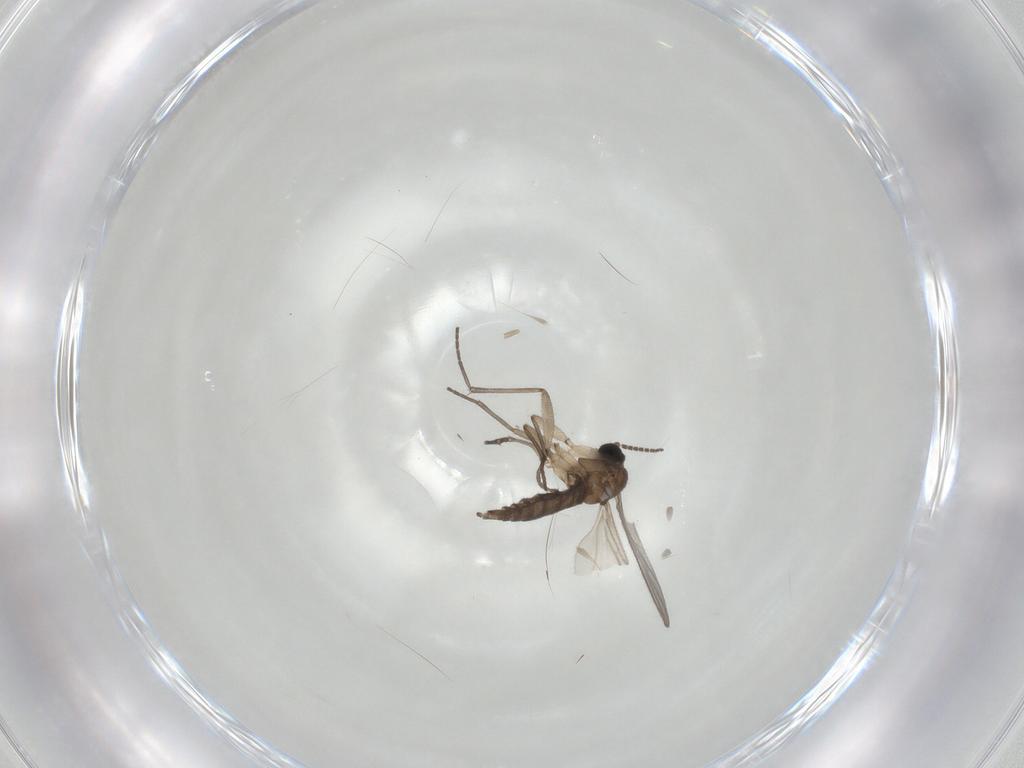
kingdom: Animalia
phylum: Arthropoda
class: Insecta
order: Diptera
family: Sciaridae
